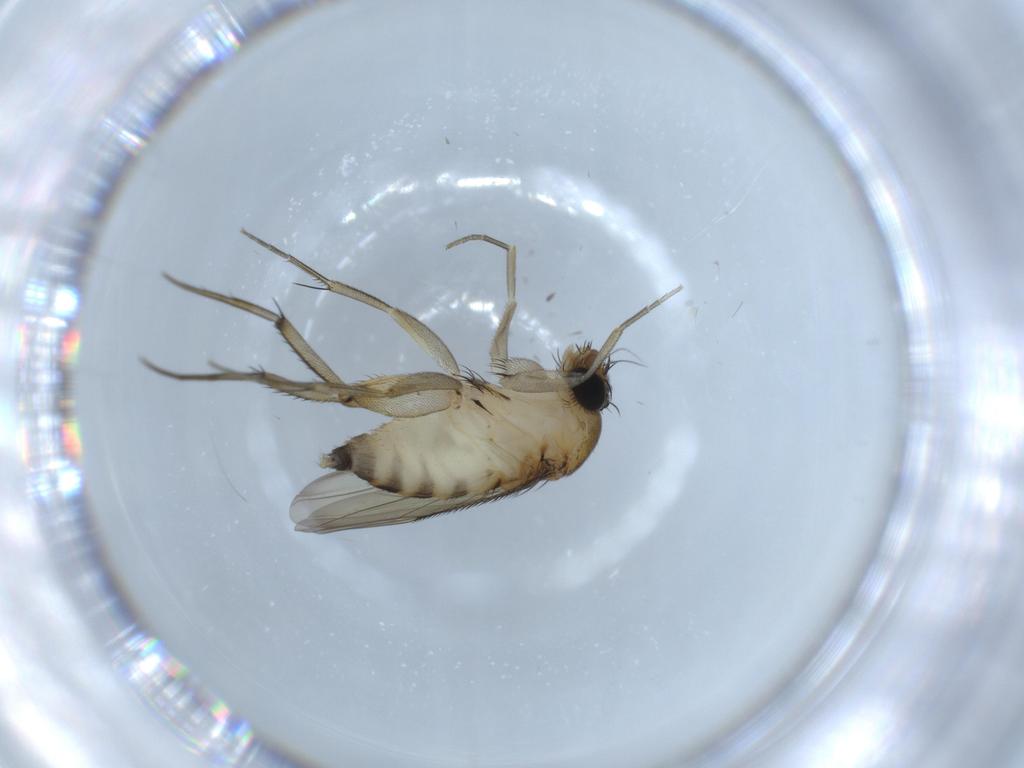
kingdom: Animalia
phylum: Arthropoda
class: Insecta
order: Diptera
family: Phoridae
